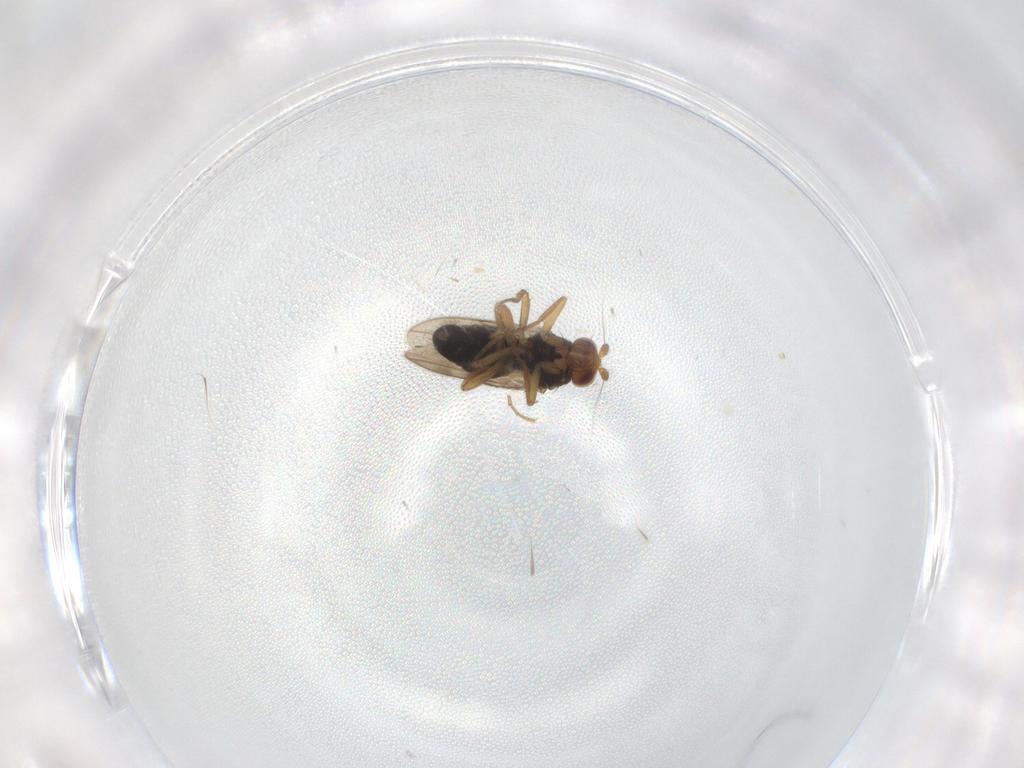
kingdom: Animalia
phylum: Arthropoda
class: Insecta
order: Diptera
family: Sphaeroceridae
